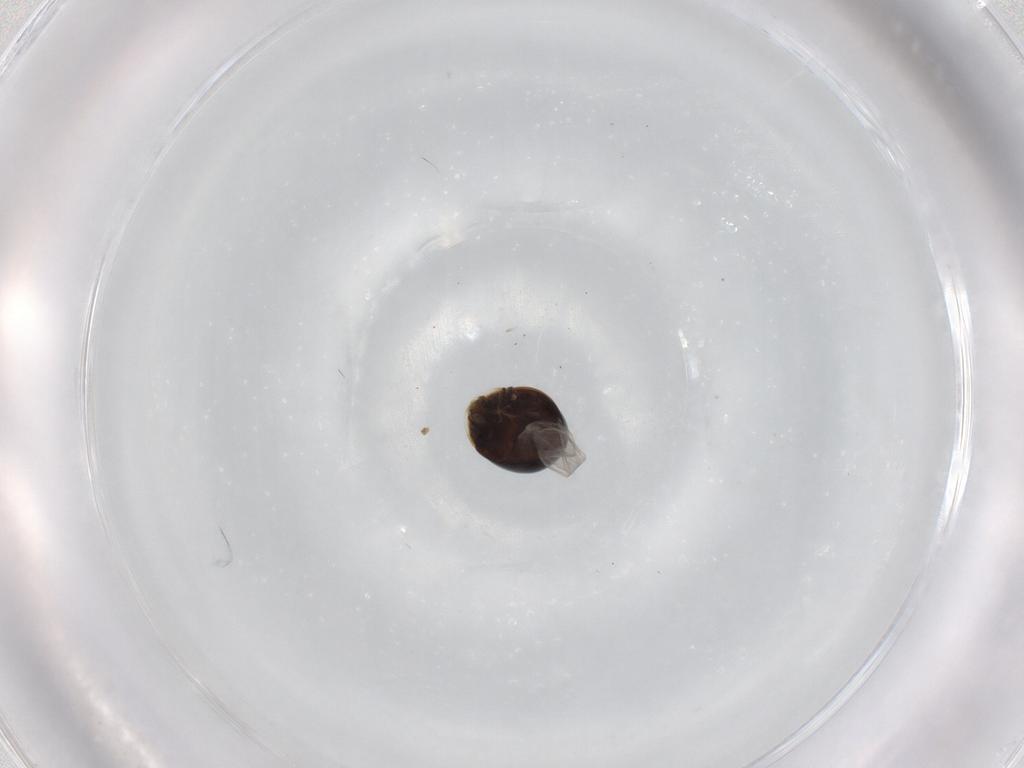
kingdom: Animalia
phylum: Arthropoda
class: Insecta
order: Coleoptera
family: Corylophidae
